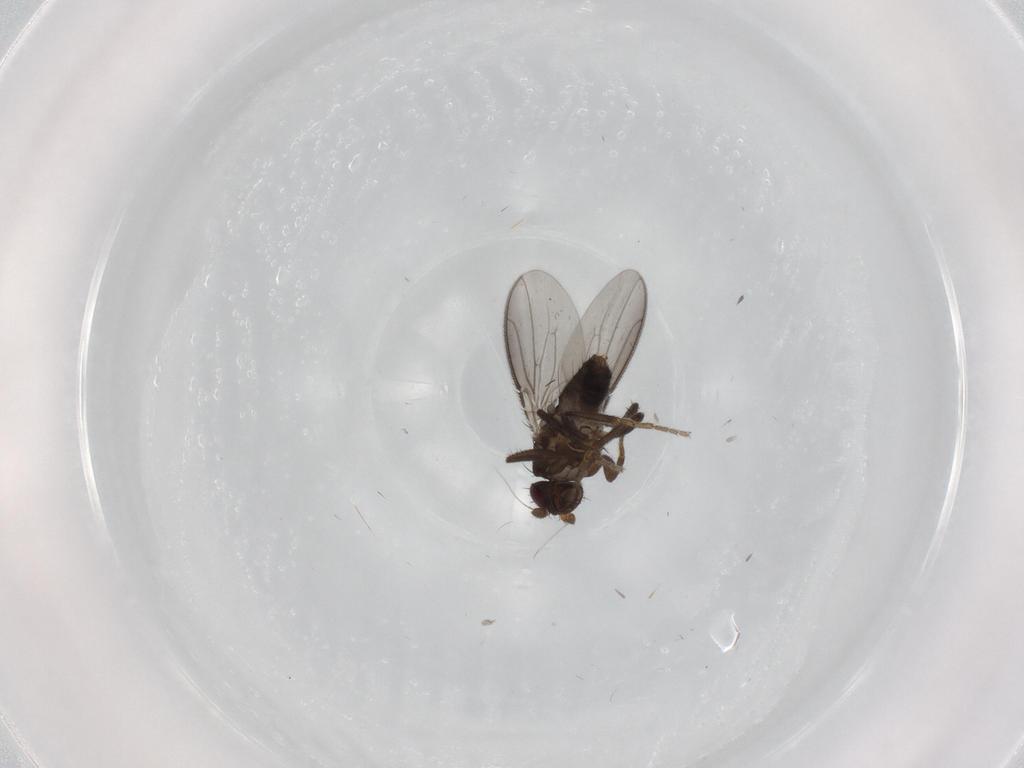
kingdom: Animalia
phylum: Arthropoda
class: Insecta
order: Diptera
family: Sphaeroceridae
